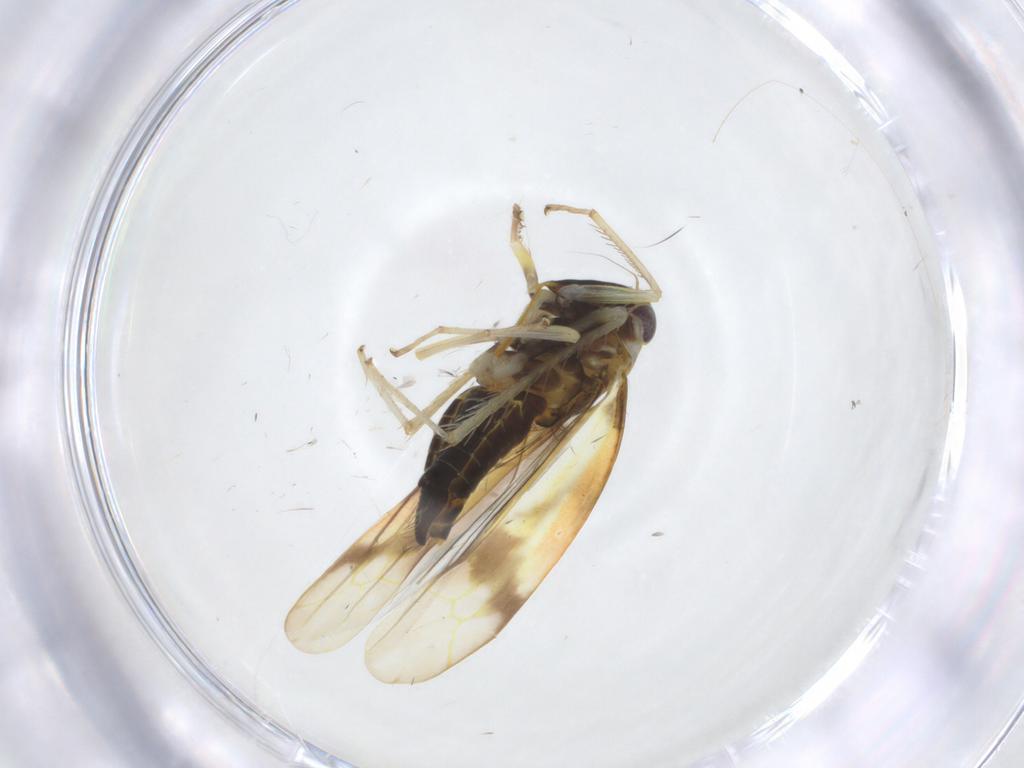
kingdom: Animalia
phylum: Arthropoda
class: Insecta
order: Hemiptera
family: Cicadellidae
